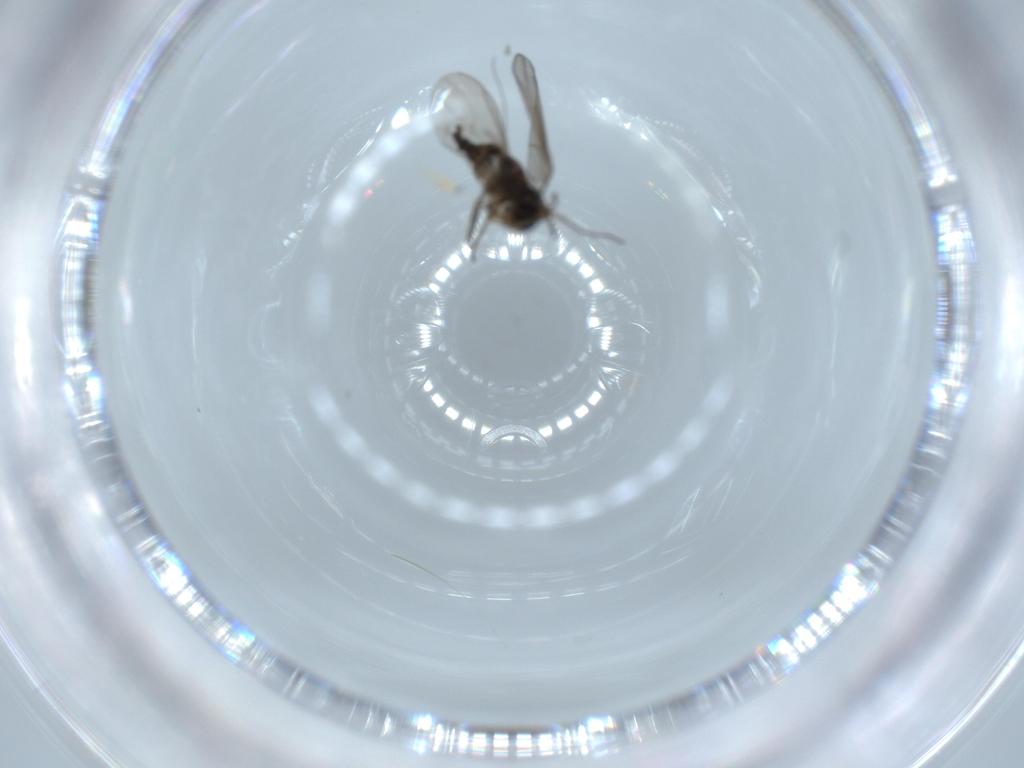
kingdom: Animalia
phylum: Arthropoda
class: Insecta
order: Diptera
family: Sciaridae
